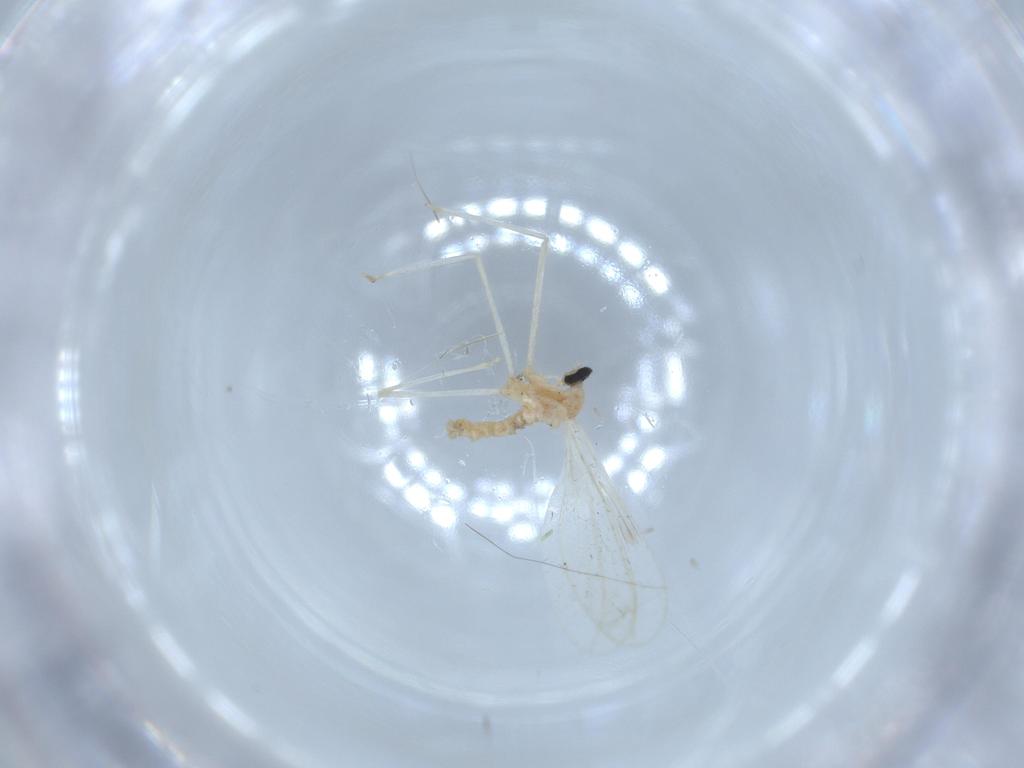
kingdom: Animalia
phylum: Arthropoda
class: Insecta
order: Diptera
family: Cecidomyiidae
